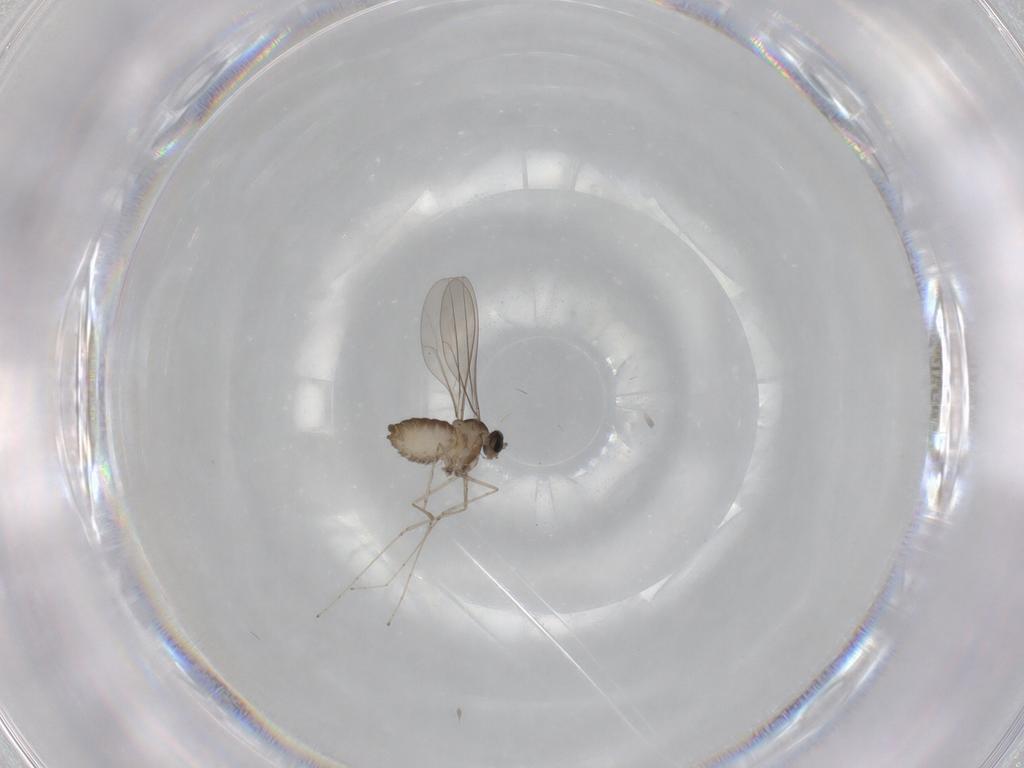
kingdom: Animalia
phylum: Arthropoda
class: Insecta
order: Diptera
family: Cecidomyiidae
